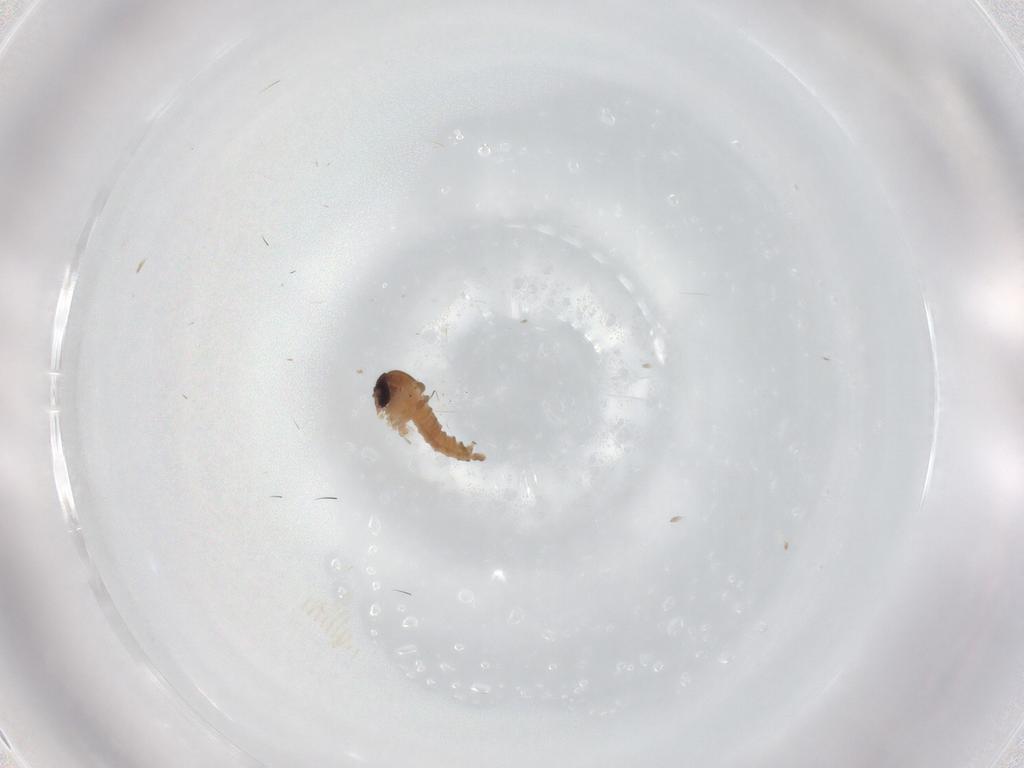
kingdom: Animalia
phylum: Arthropoda
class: Insecta
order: Diptera
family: Psychodidae
